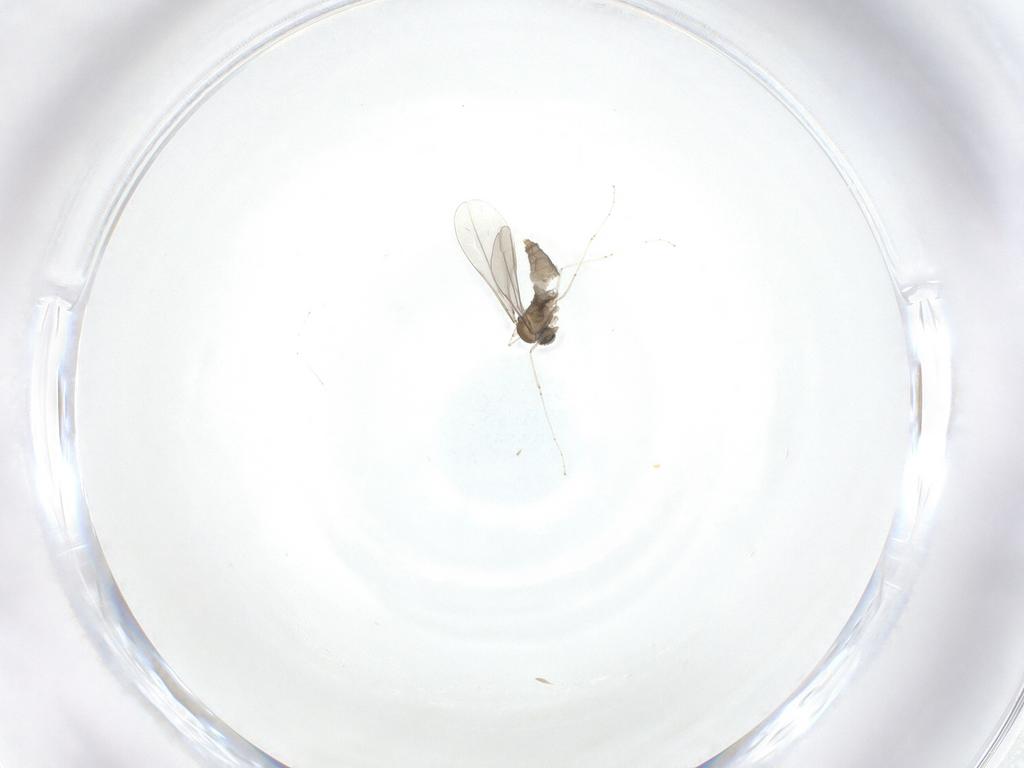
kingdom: Animalia
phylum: Arthropoda
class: Insecta
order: Diptera
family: Cecidomyiidae
